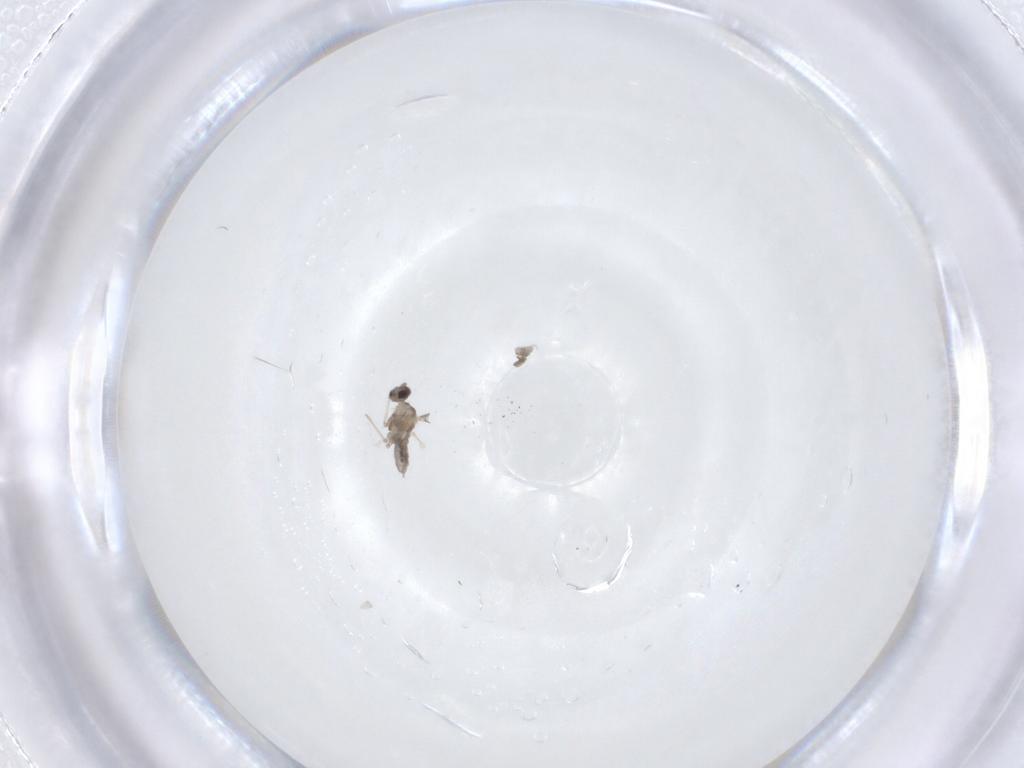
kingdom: Animalia
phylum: Arthropoda
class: Insecta
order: Diptera
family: Cecidomyiidae
